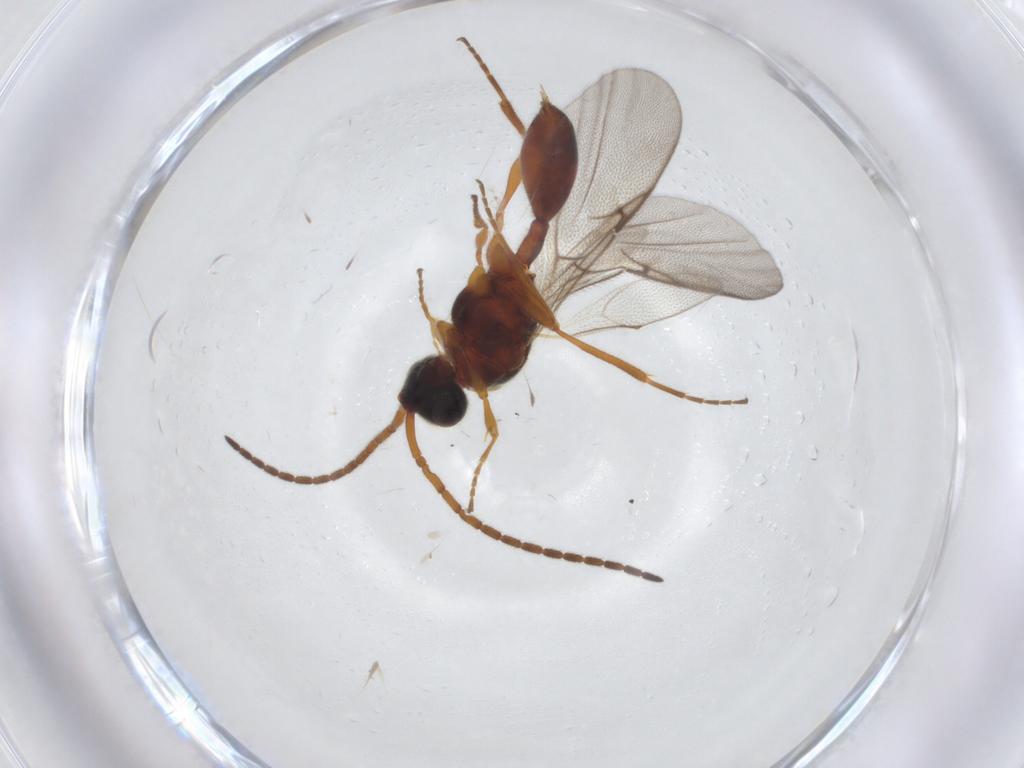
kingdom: Animalia
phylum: Arthropoda
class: Insecta
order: Hymenoptera
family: Diapriidae
